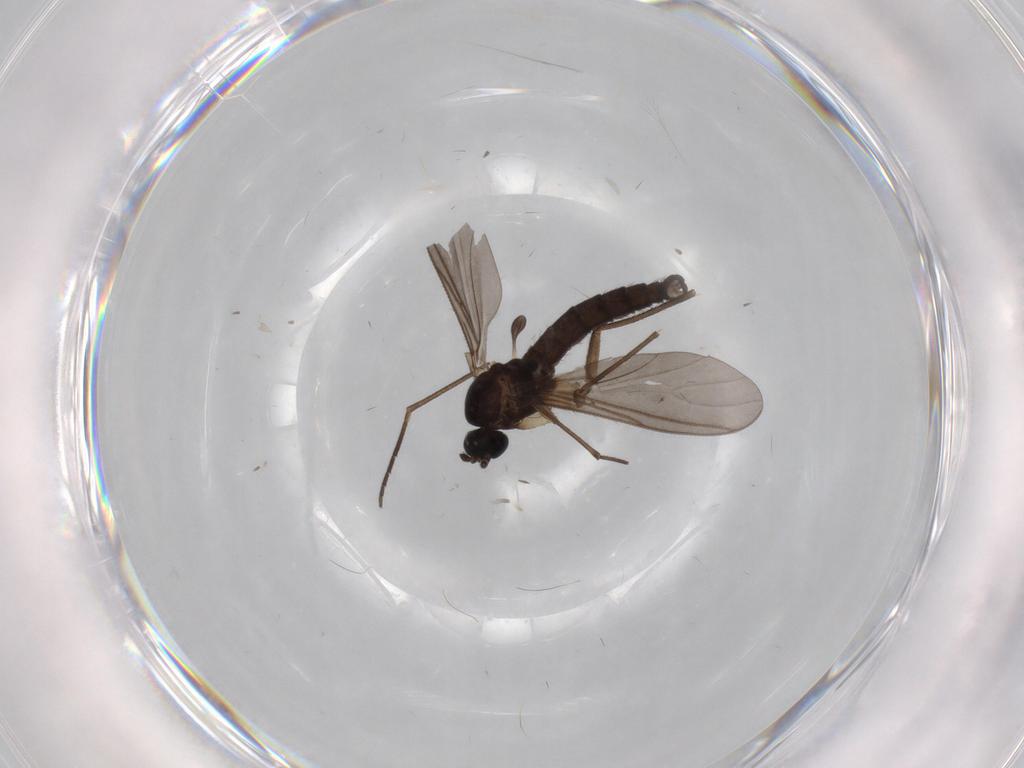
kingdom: Animalia
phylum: Arthropoda
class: Insecta
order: Diptera
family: Sciaridae
